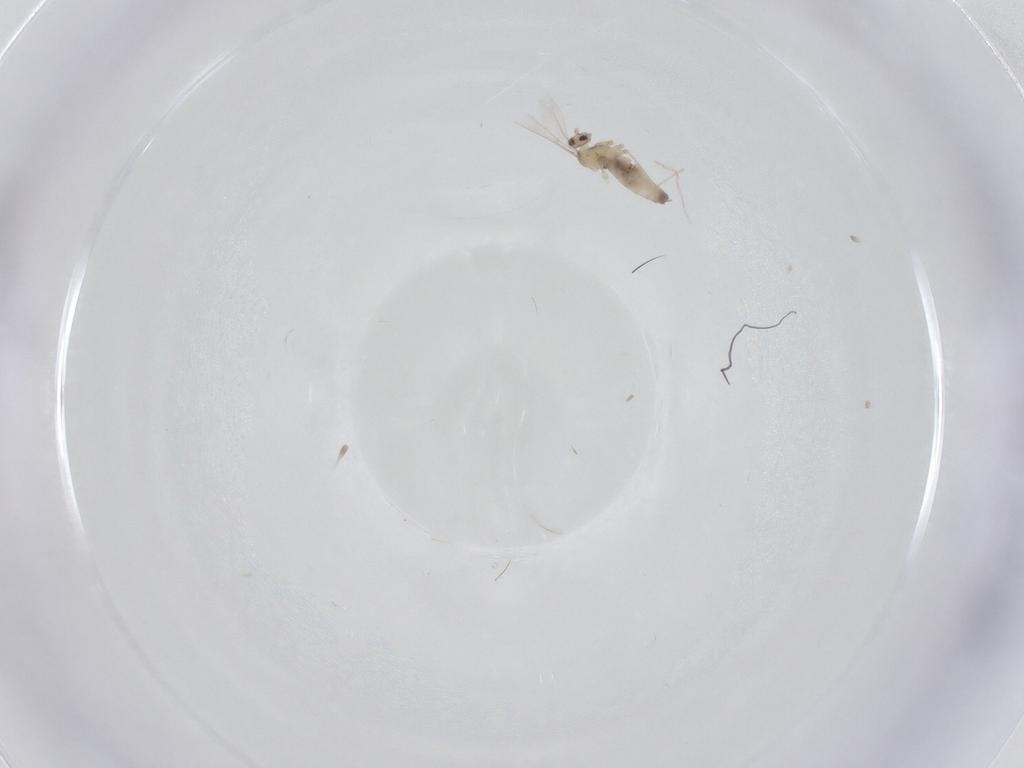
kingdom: Animalia
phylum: Arthropoda
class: Insecta
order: Diptera
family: Cecidomyiidae
